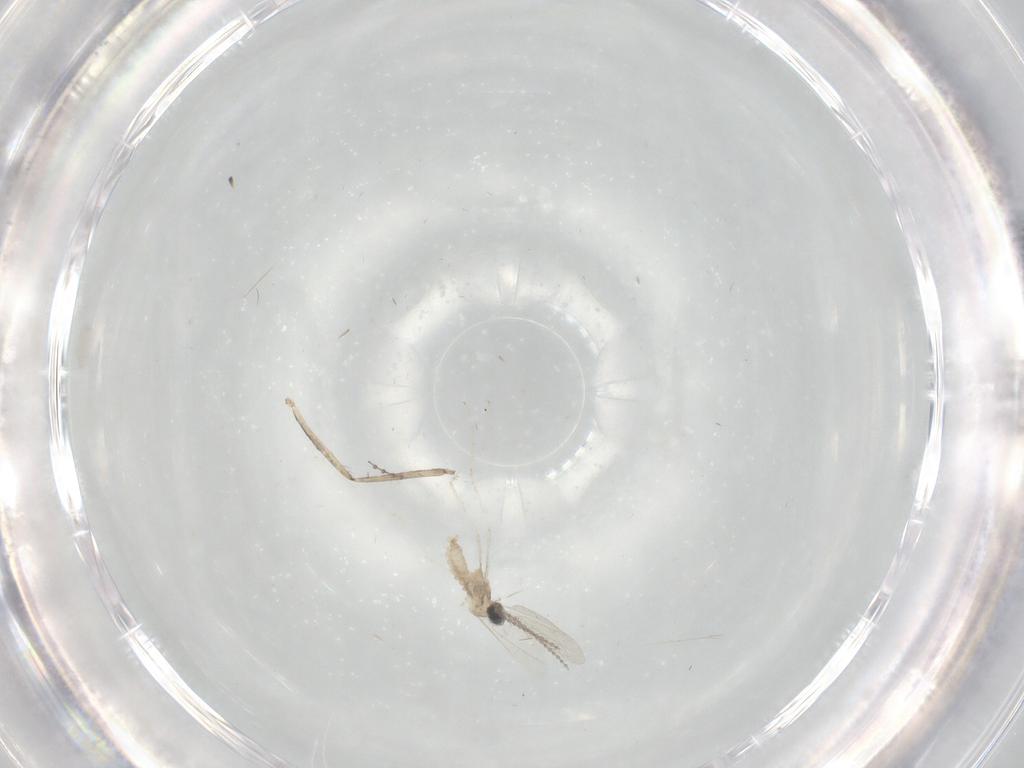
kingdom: Animalia
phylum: Arthropoda
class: Insecta
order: Diptera
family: Cecidomyiidae
